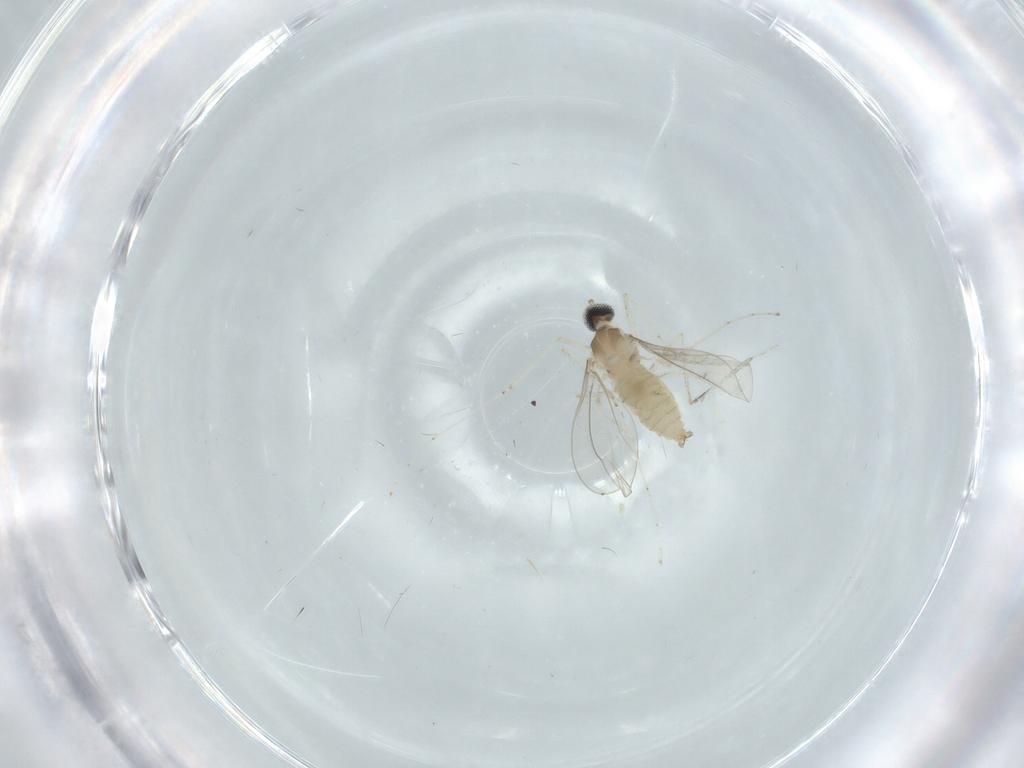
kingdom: Animalia
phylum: Arthropoda
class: Insecta
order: Diptera
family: Cecidomyiidae
